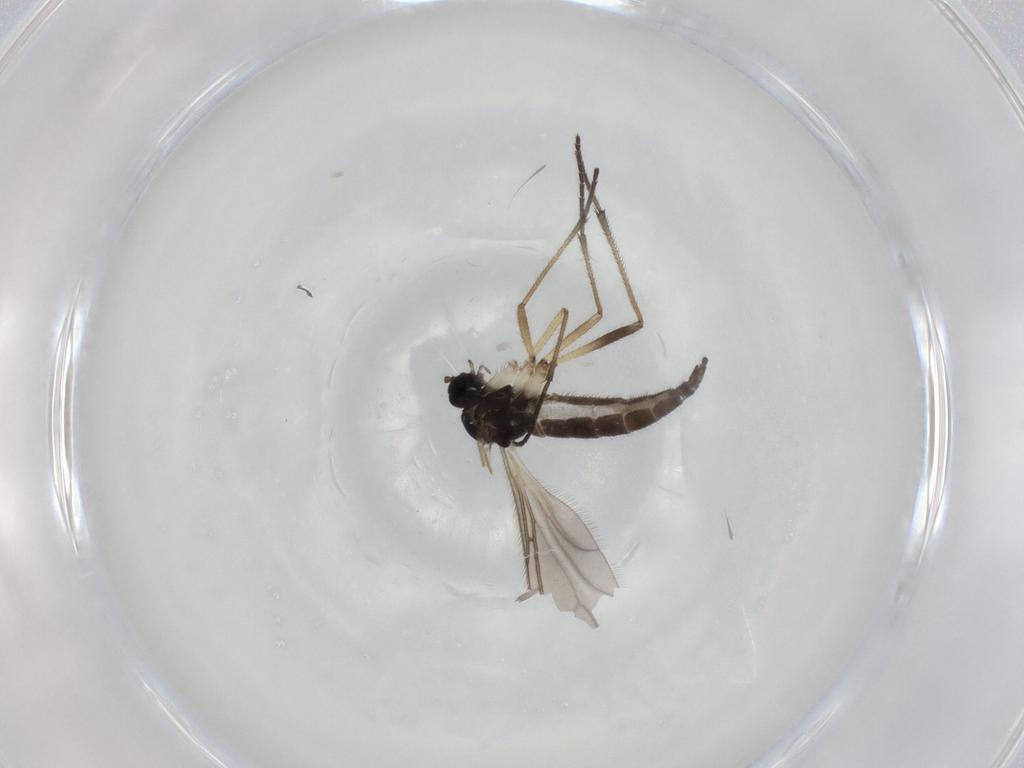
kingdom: Animalia
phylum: Arthropoda
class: Insecta
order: Diptera
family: Sciaridae
